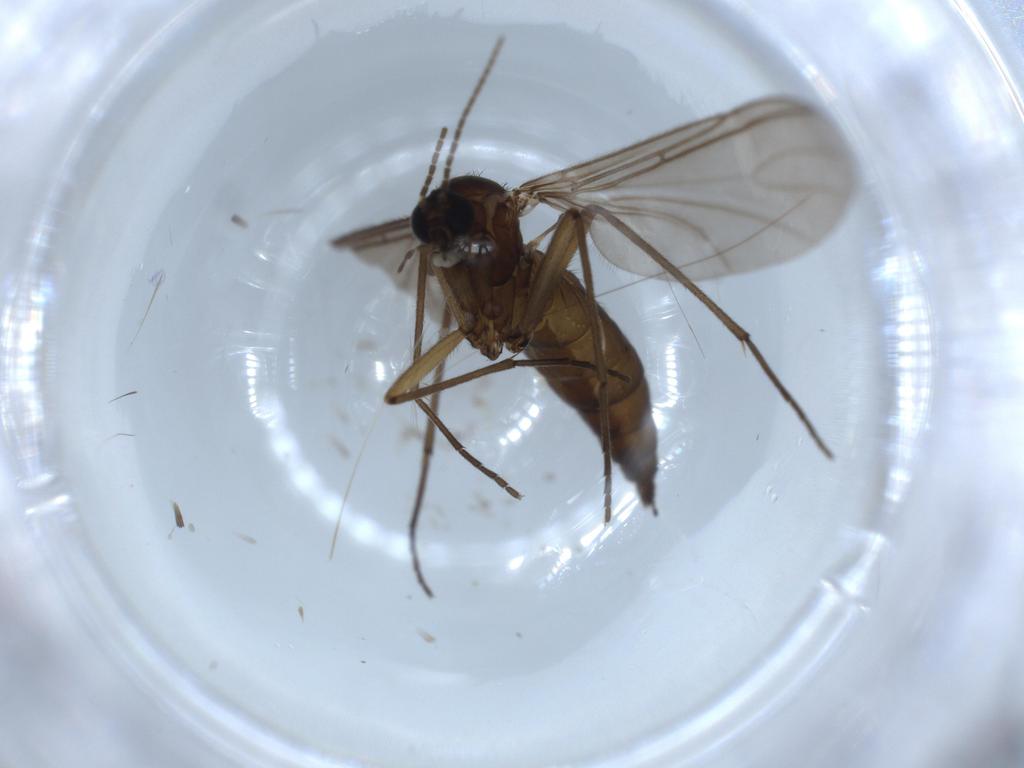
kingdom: Animalia
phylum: Arthropoda
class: Insecta
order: Diptera
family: Sciaridae
